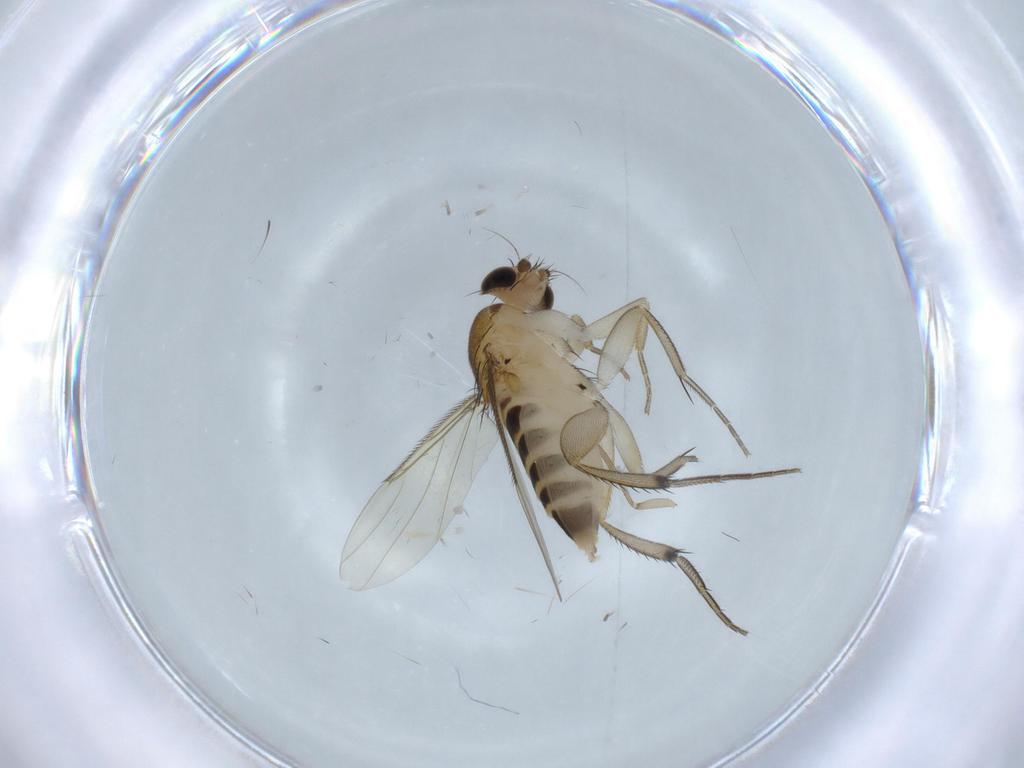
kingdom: Animalia
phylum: Arthropoda
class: Insecta
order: Diptera
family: Phoridae
